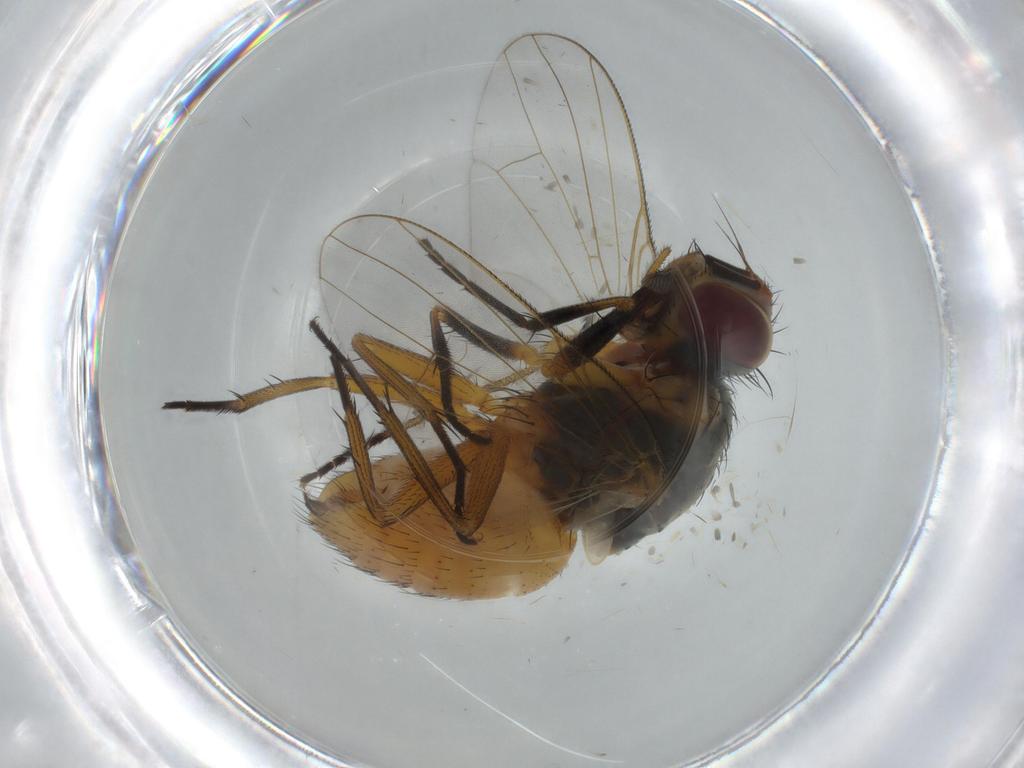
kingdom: Animalia
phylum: Arthropoda
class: Insecta
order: Diptera
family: Muscidae
